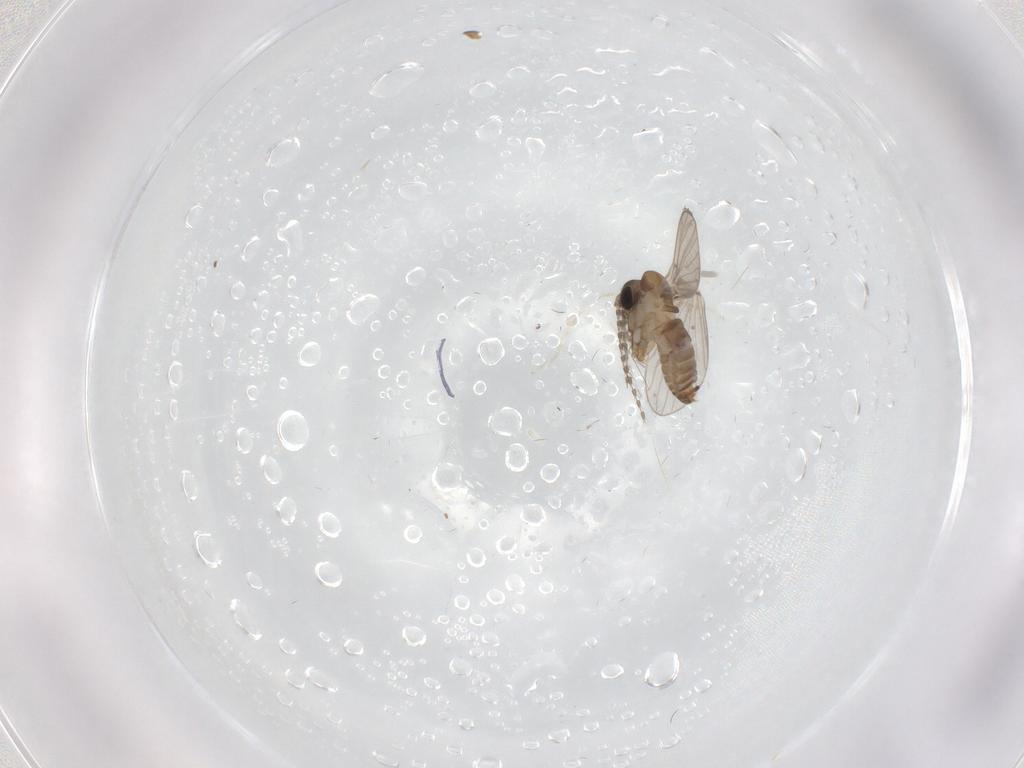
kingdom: Animalia
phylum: Arthropoda
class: Insecta
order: Diptera
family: Psychodidae
